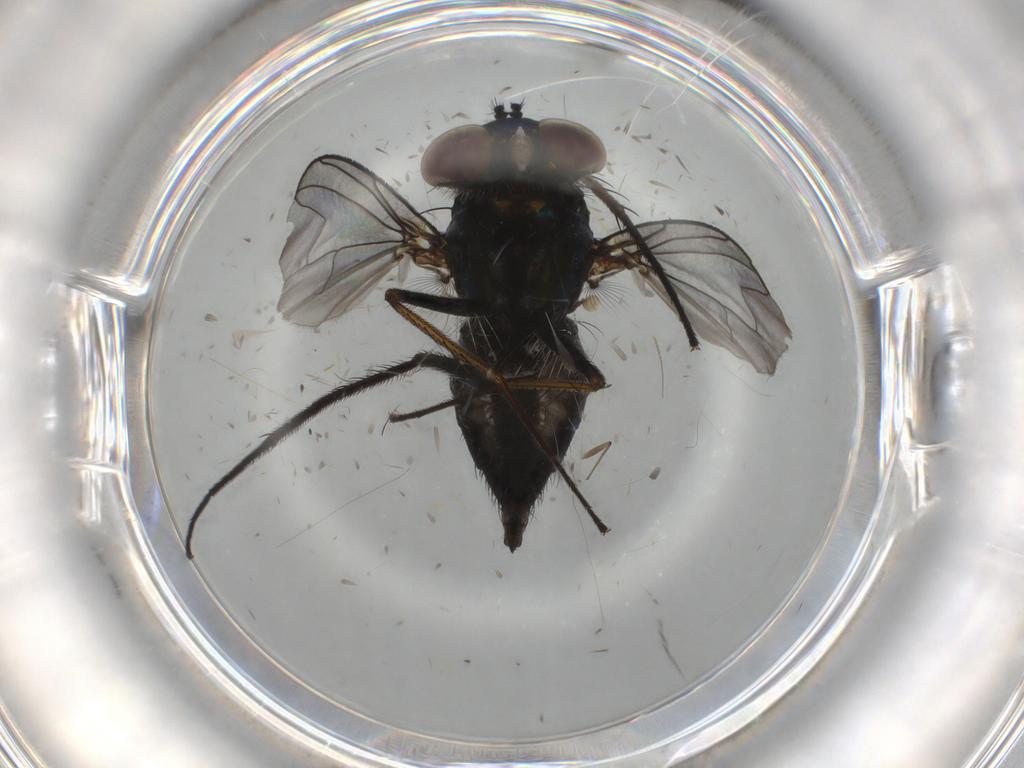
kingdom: Animalia
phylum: Arthropoda
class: Insecta
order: Diptera
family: Dolichopodidae
